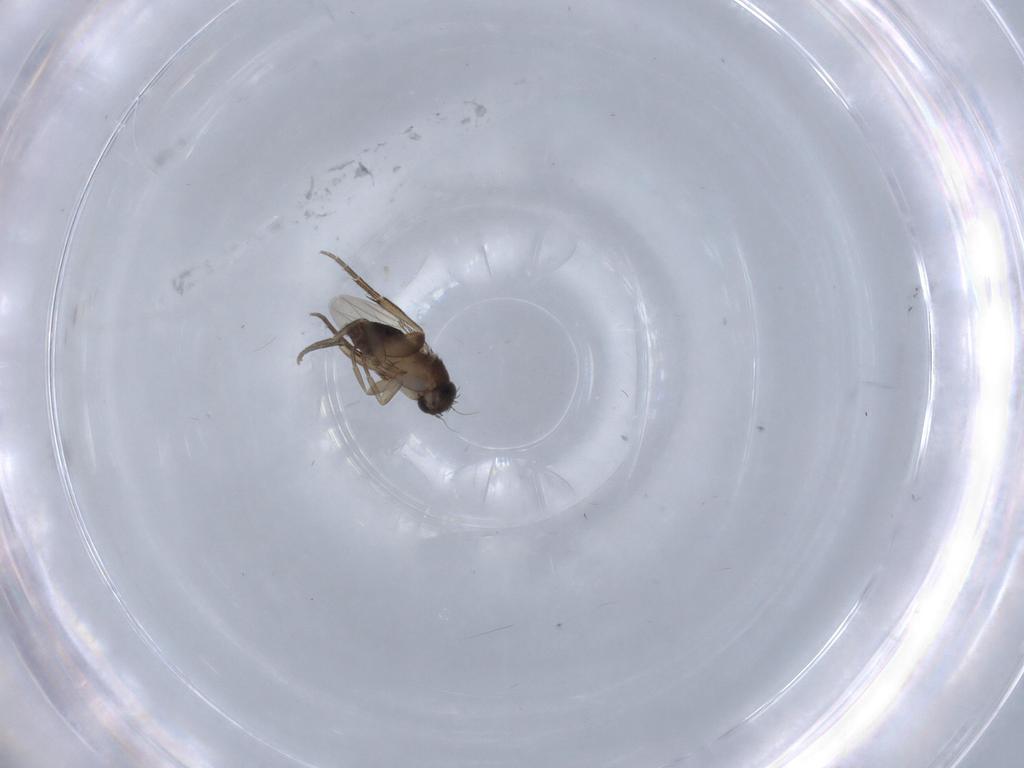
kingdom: Animalia
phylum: Arthropoda
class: Insecta
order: Diptera
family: Phoridae
